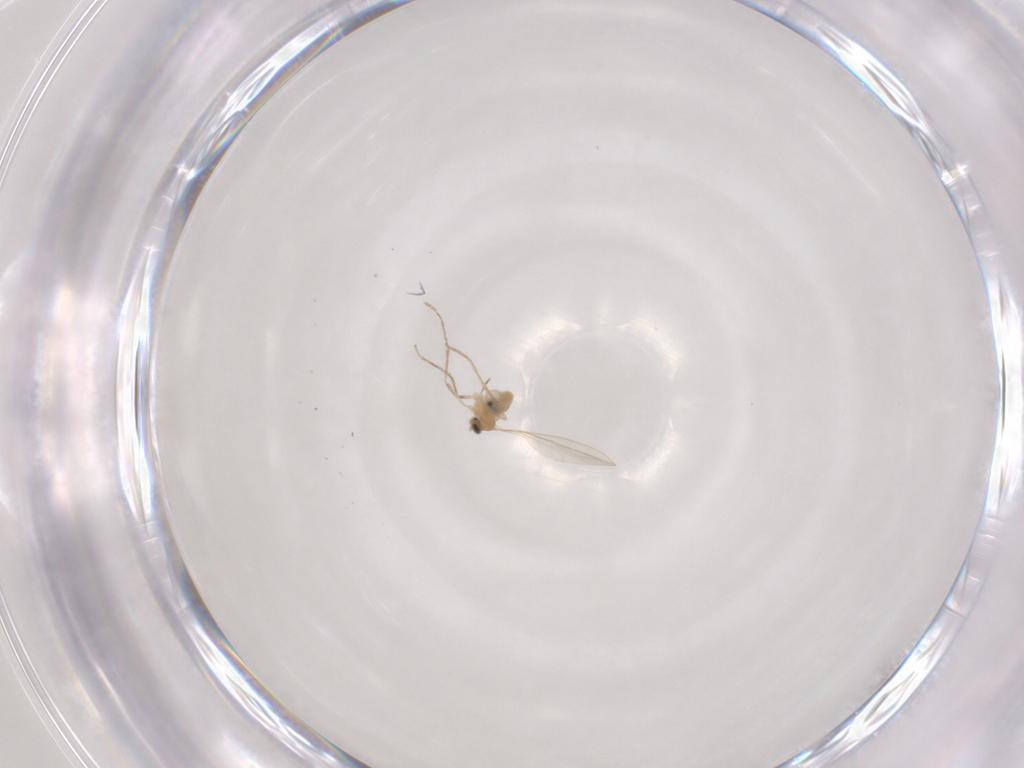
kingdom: Animalia
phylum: Arthropoda
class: Insecta
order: Diptera
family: Cecidomyiidae
